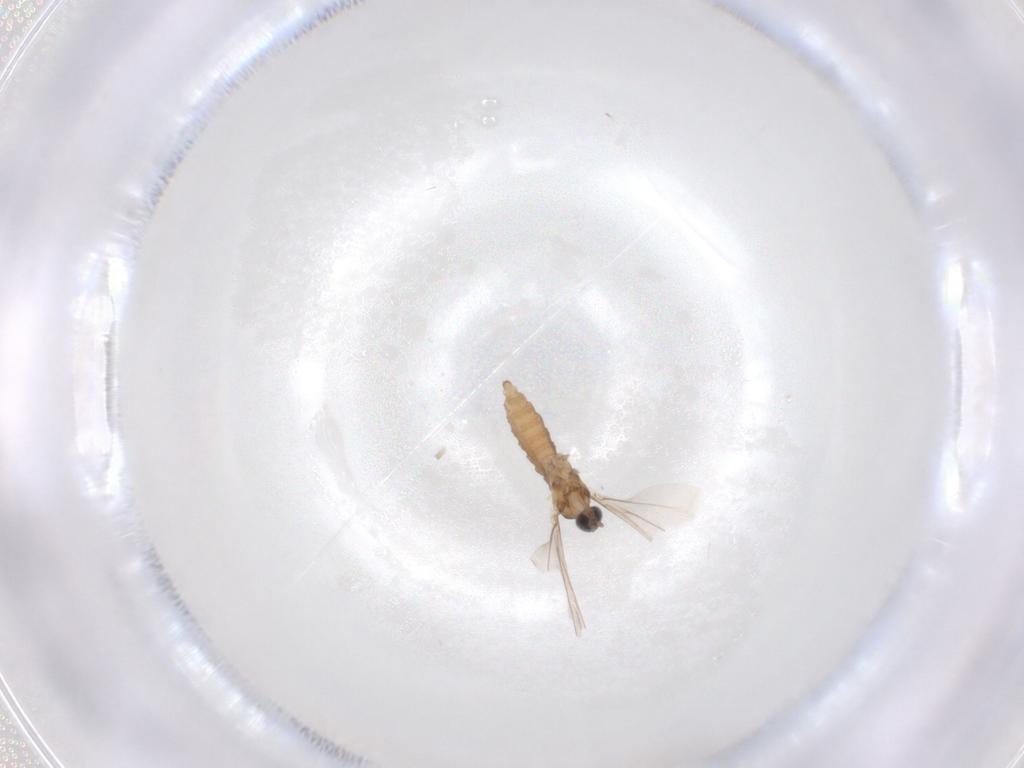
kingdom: Animalia
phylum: Arthropoda
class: Insecta
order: Diptera
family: Cecidomyiidae
